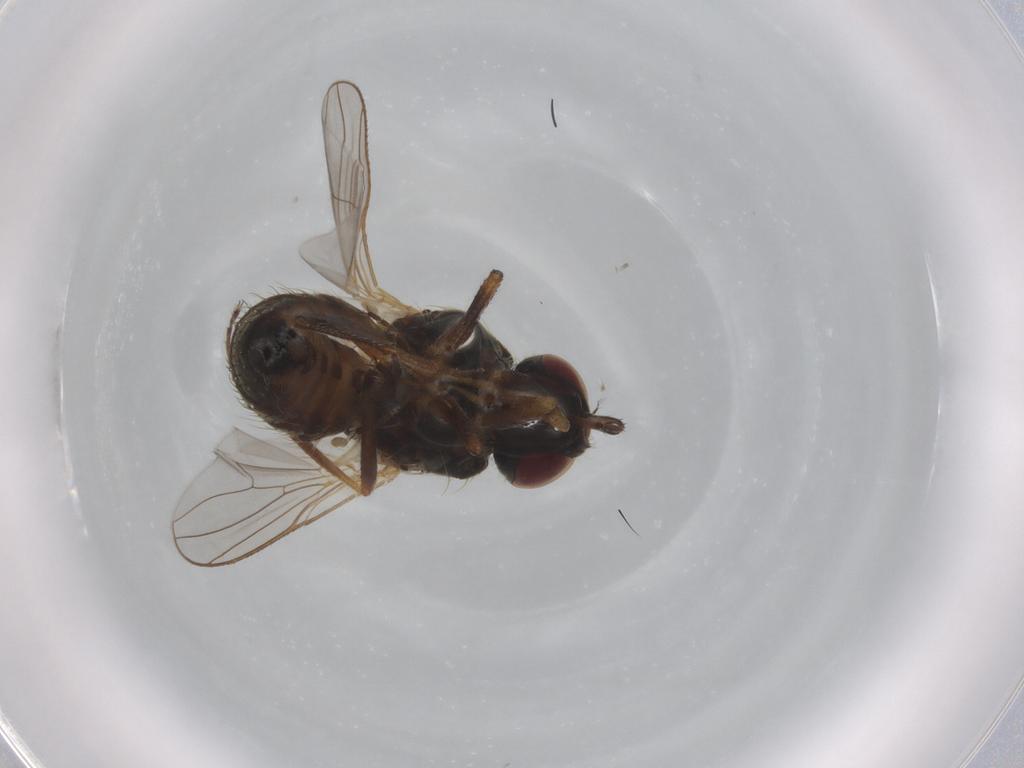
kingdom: Animalia
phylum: Arthropoda
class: Insecta
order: Diptera
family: Muscidae
